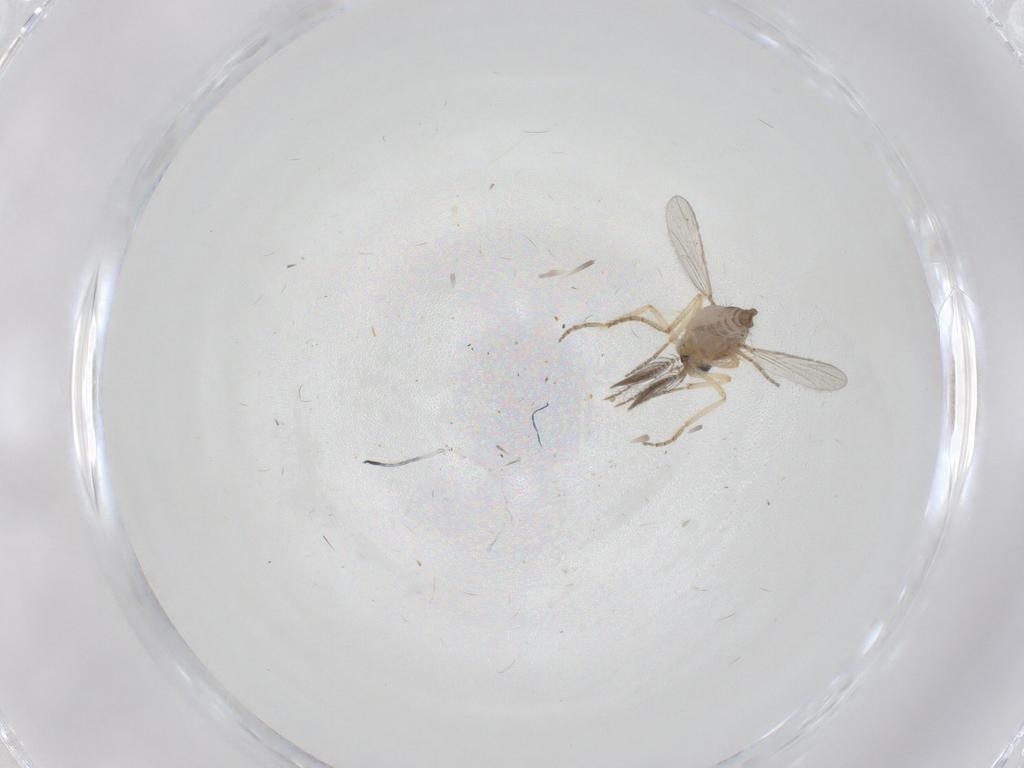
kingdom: Animalia
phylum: Arthropoda
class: Insecta
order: Diptera
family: Ceratopogonidae
